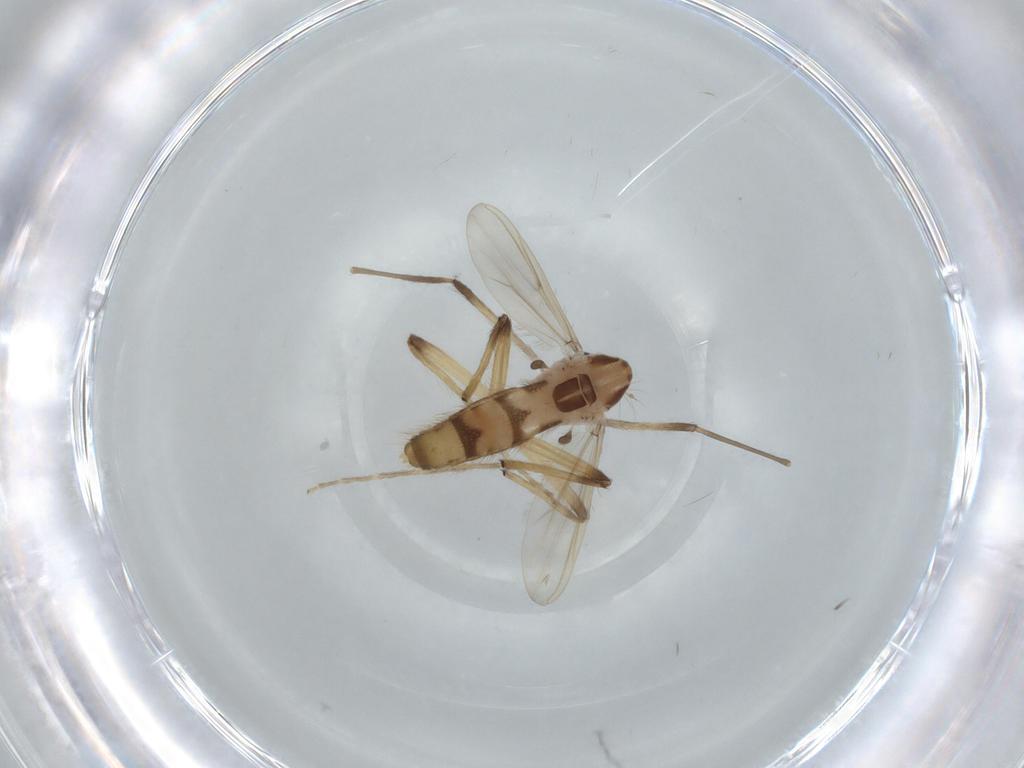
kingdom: Animalia
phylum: Arthropoda
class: Insecta
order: Diptera
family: Chironomidae
